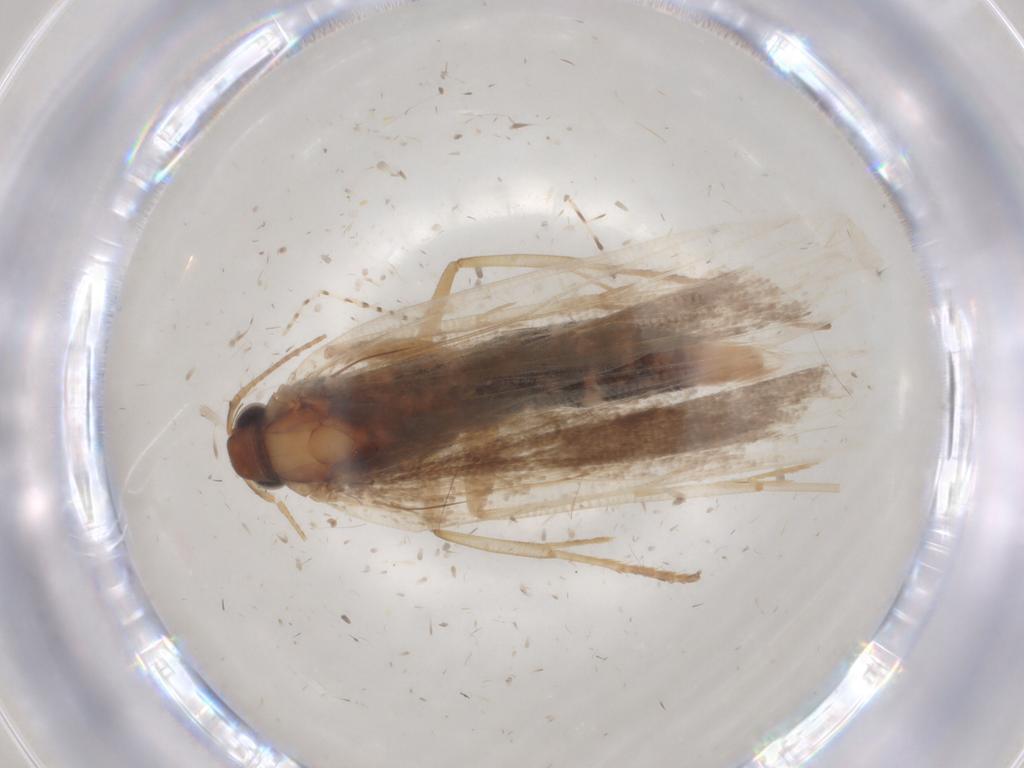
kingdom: Animalia
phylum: Arthropoda
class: Insecta
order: Lepidoptera
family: Gelechiidae
